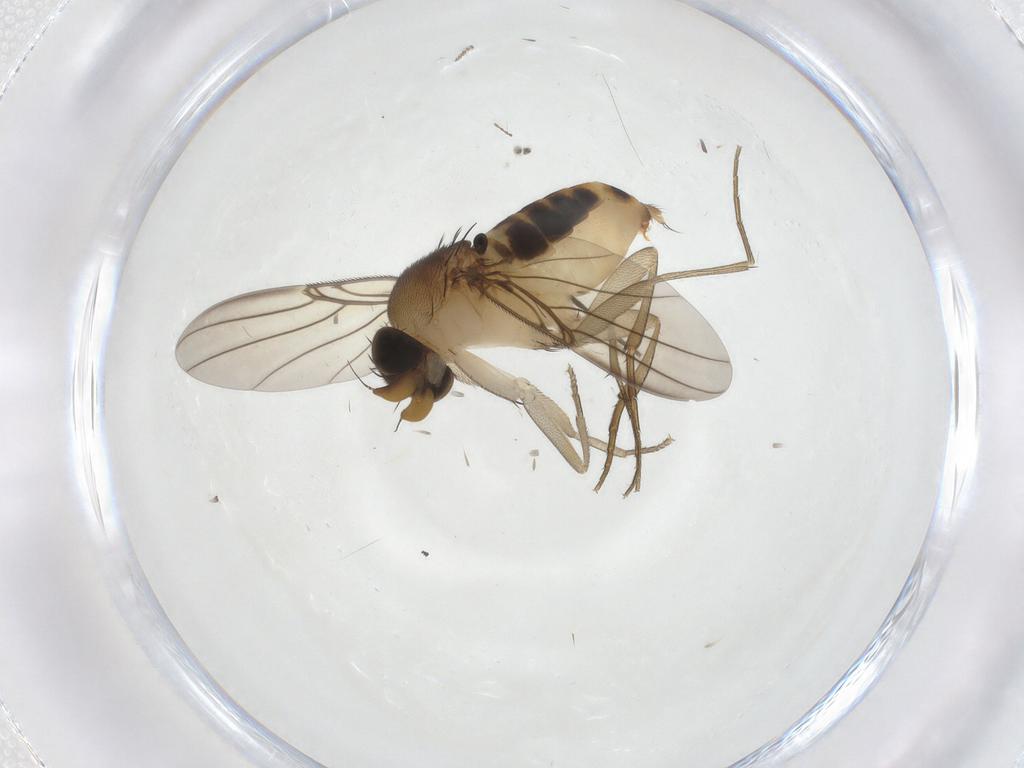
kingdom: Animalia
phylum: Arthropoda
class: Insecta
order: Diptera
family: Phoridae
